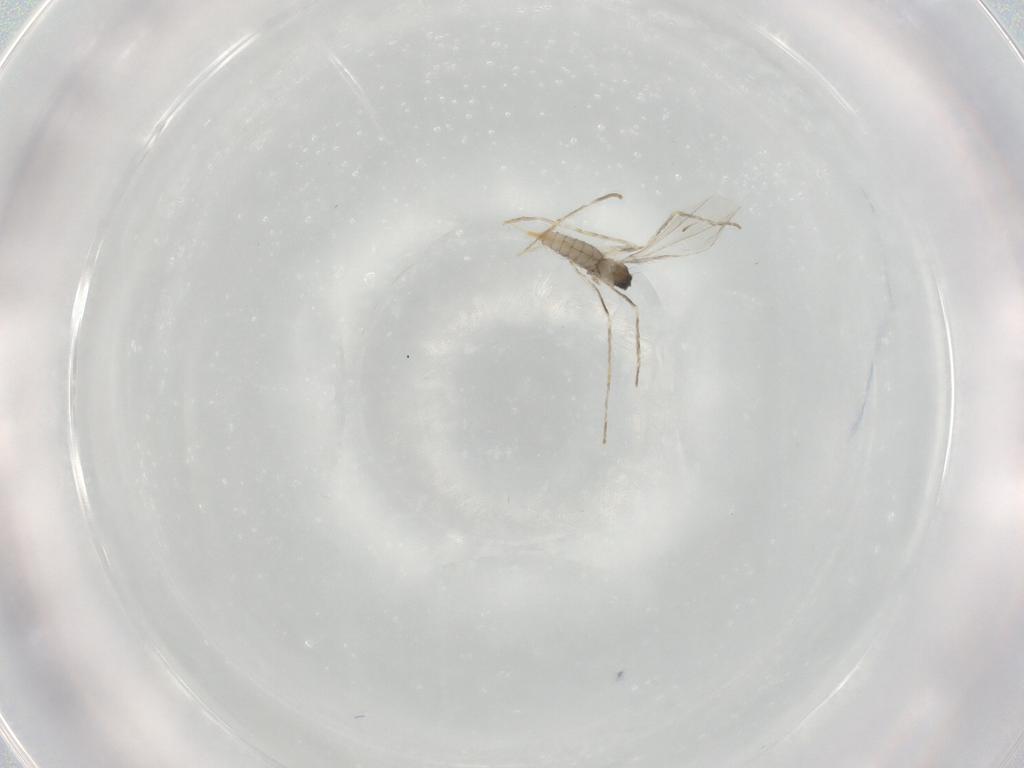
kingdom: Animalia
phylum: Arthropoda
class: Insecta
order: Diptera
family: Cecidomyiidae
